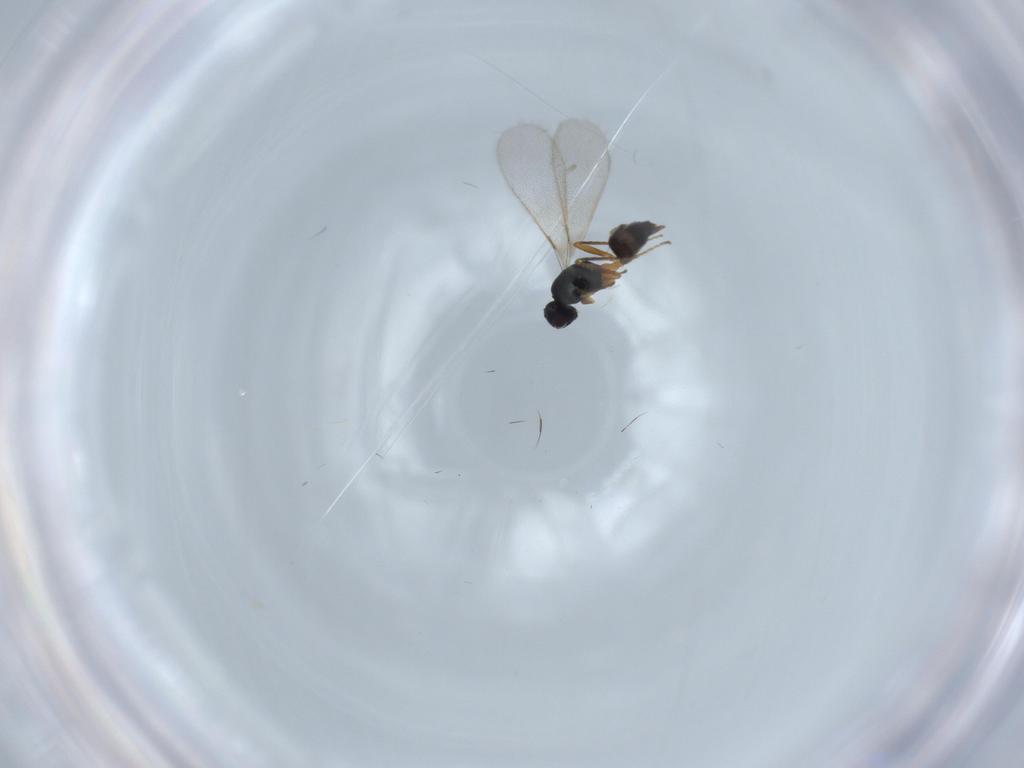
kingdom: Animalia
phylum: Arthropoda
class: Insecta
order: Hymenoptera
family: Braconidae
